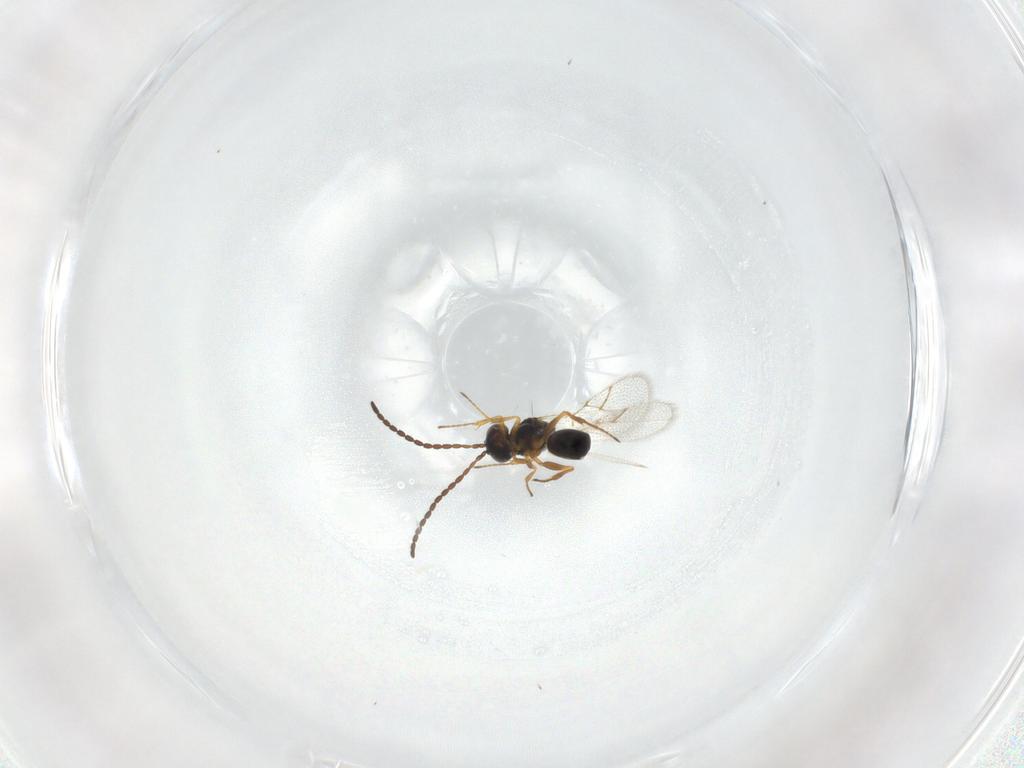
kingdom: Animalia
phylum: Arthropoda
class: Insecta
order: Hymenoptera
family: Figitidae
